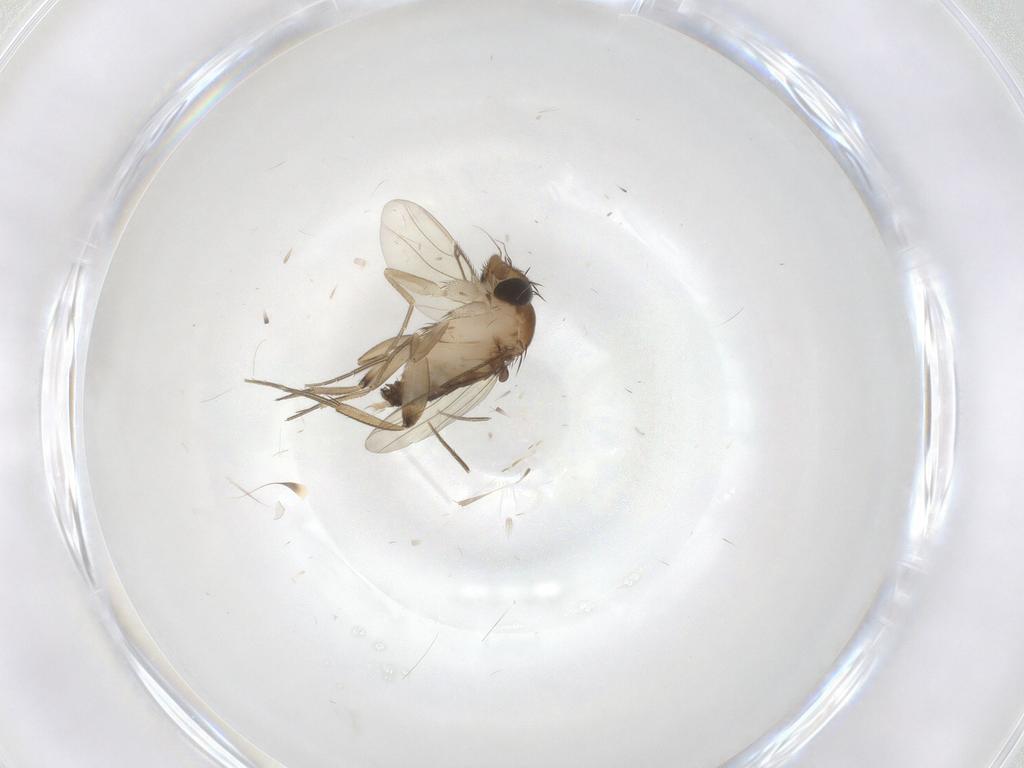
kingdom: Animalia
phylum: Arthropoda
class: Insecta
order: Diptera
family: Phoridae
